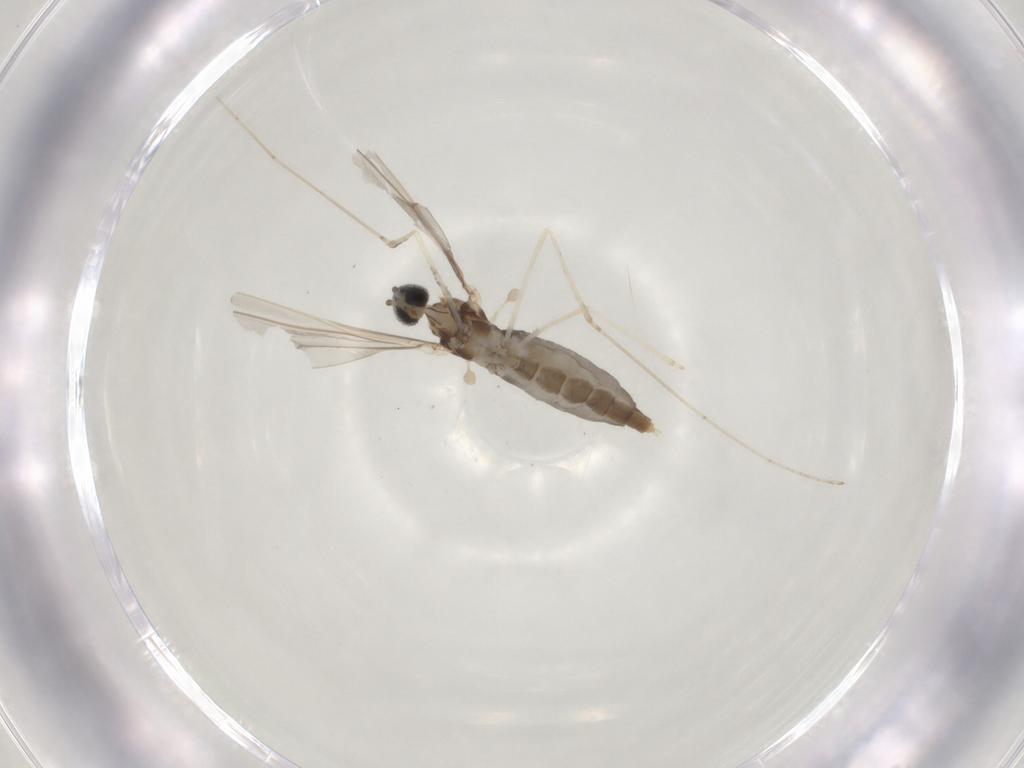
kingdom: Animalia
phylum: Arthropoda
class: Insecta
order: Diptera
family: Cecidomyiidae
